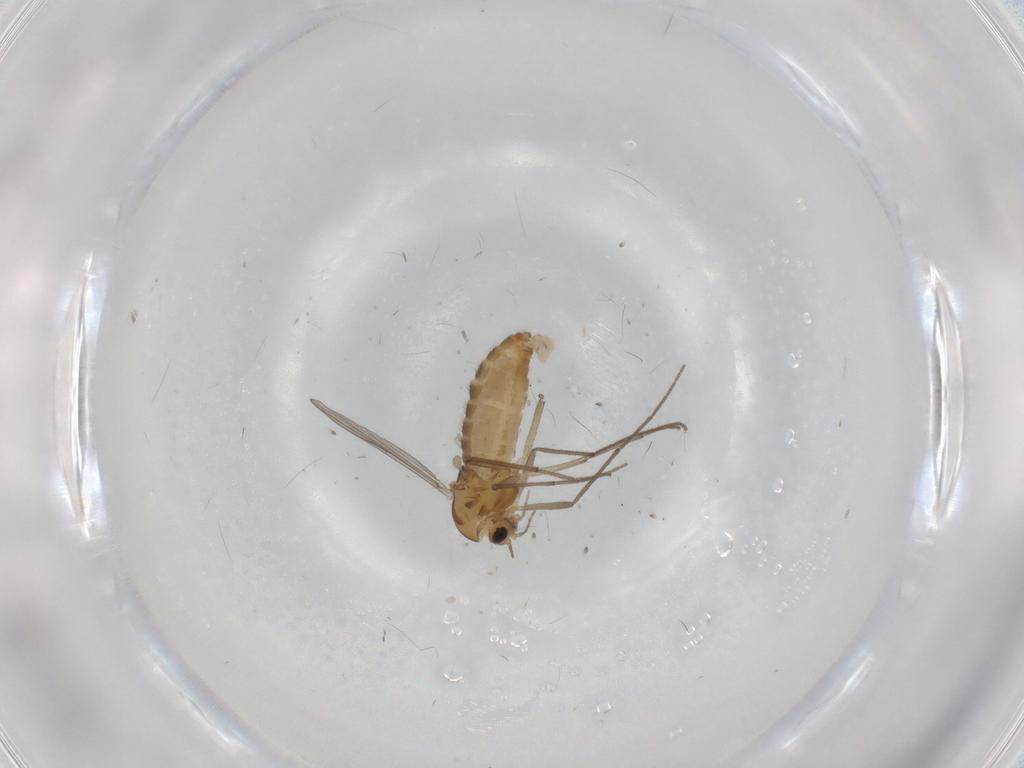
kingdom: Animalia
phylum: Arthropoda
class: Insecta
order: Diptera
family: Chironomidae
